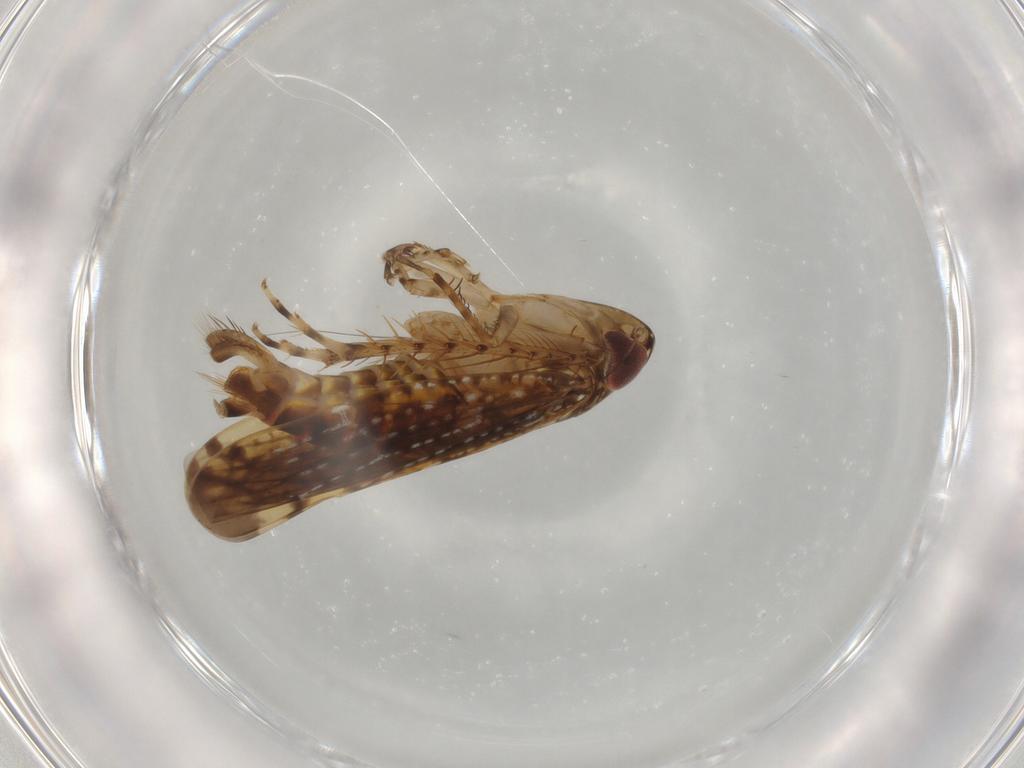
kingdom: Animalia
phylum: Arthropoda
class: Insecta
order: Hemiptera
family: Cicadellidae
